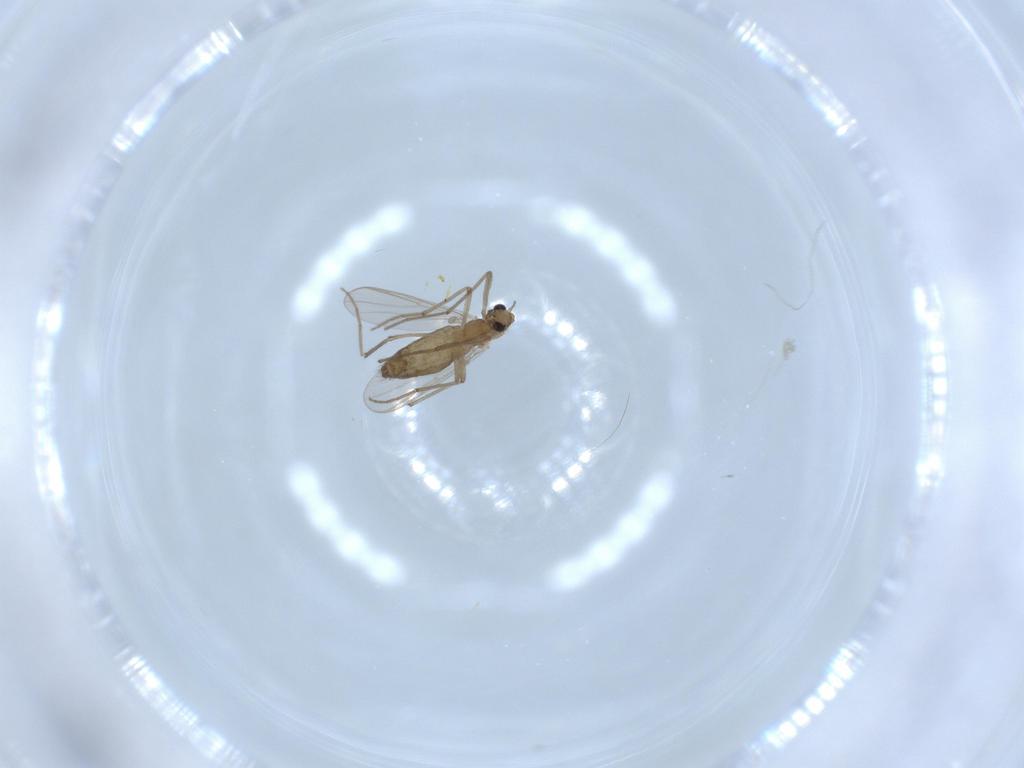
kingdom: Animalia
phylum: Arthropoda
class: Insecta
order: Diptera
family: Chironomidae
